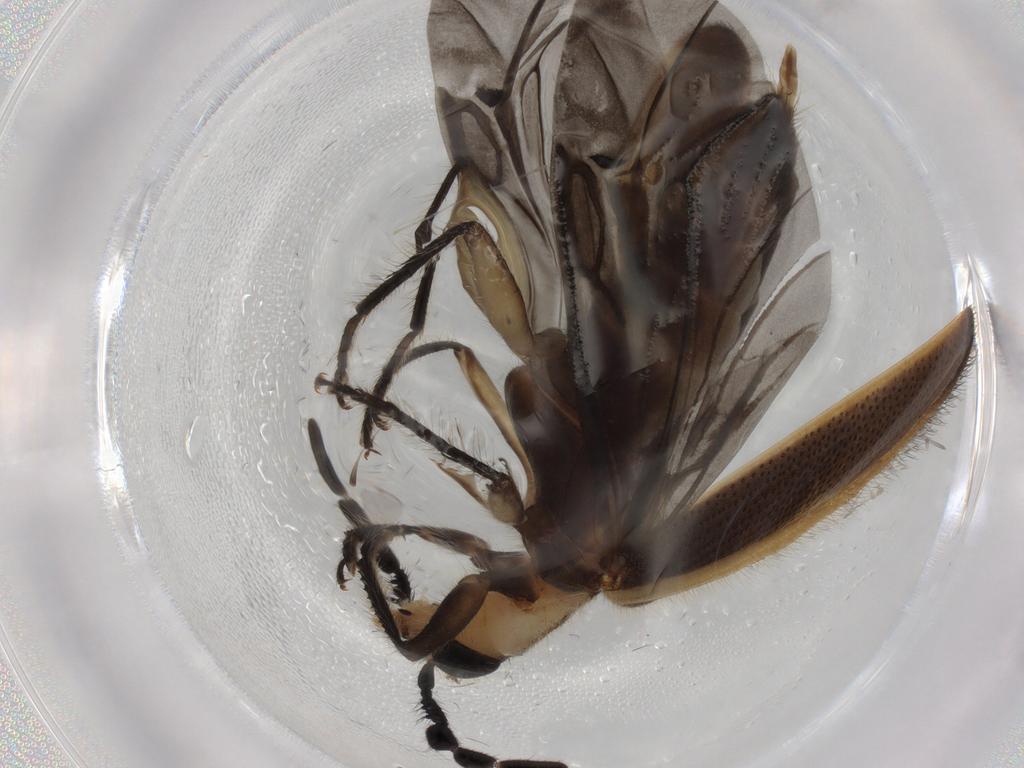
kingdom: Animalia
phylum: Arthropoda
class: Insecta
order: Coleoptera
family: Cleridae
